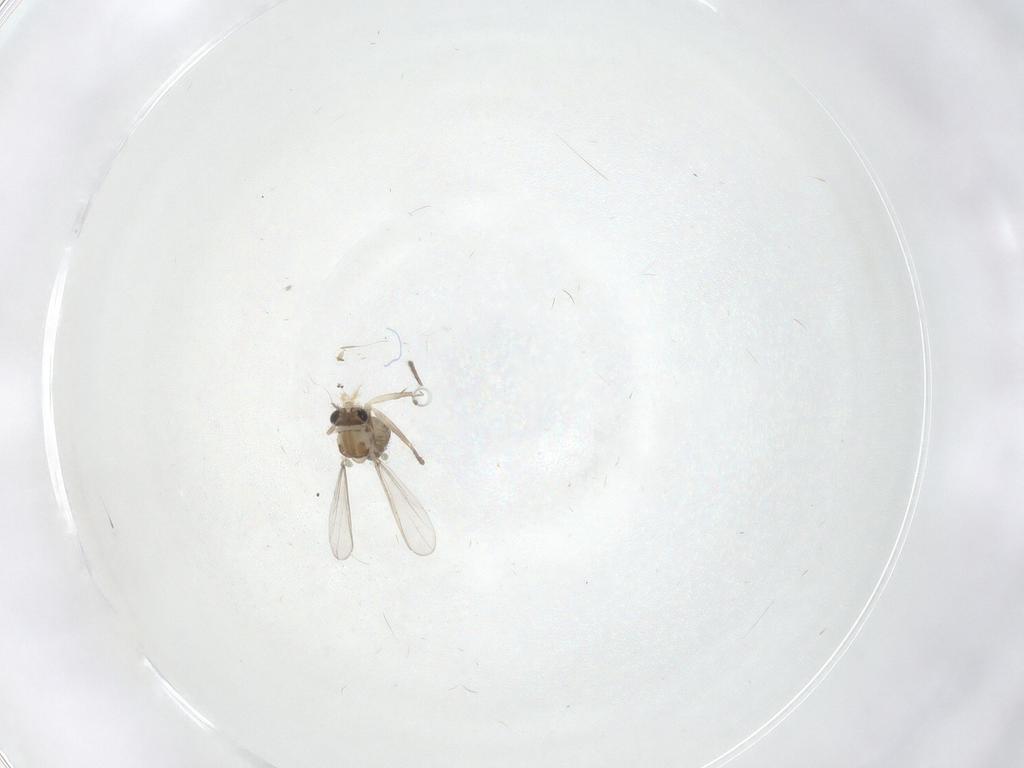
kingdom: Animalia
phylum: Arthropoda
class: Insecta
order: Diptera
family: Chironomidae
